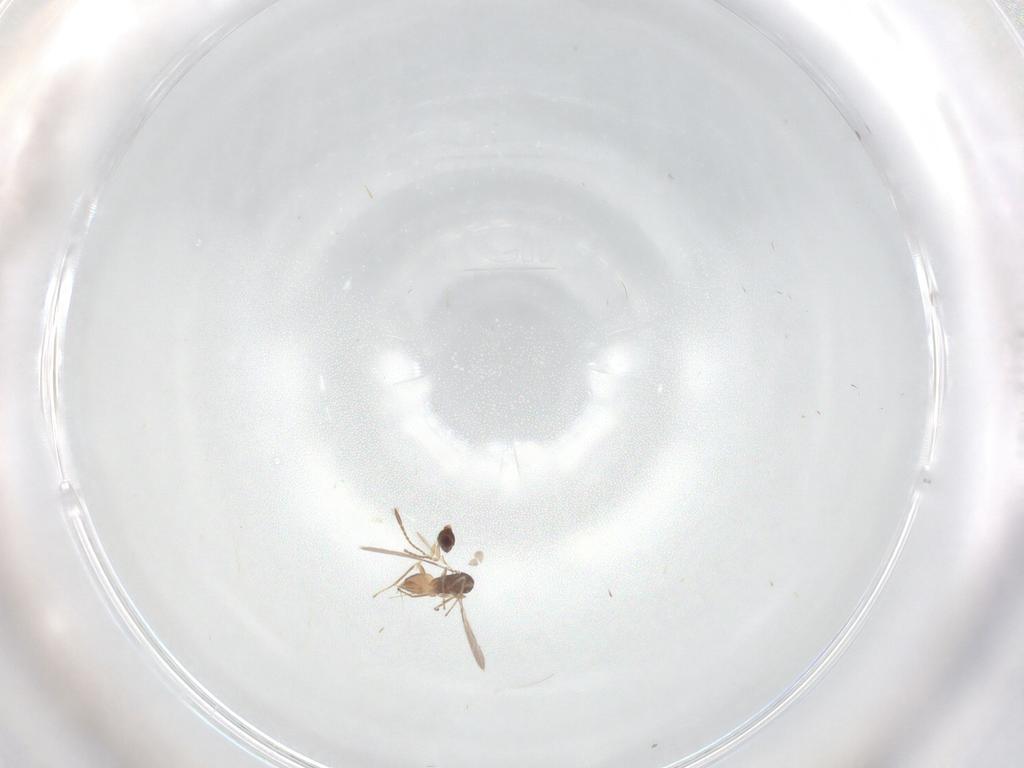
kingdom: Animalia
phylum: Arthropoda
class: Insecta
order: Hymenoptera
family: Mymaridae
